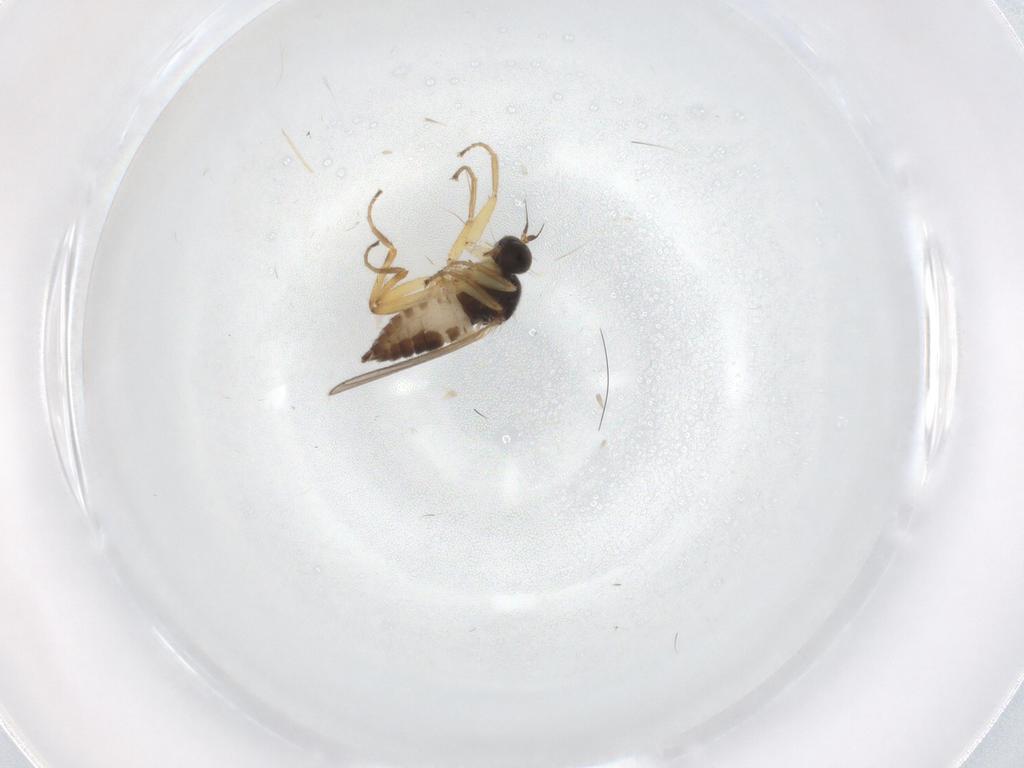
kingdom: Animalia
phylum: Arthropoda
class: Insecta
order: Diptera
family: Hybotidae
